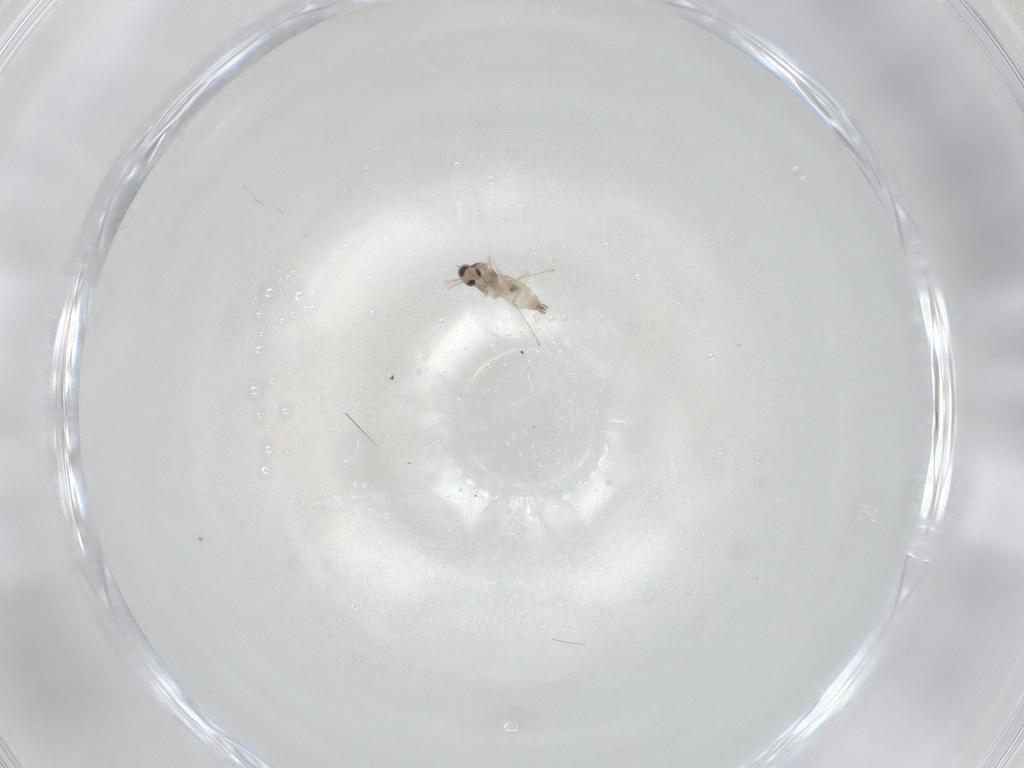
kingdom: Animalia
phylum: Arthropoda
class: Insecta
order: Diptera
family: Cecidomyiidae
